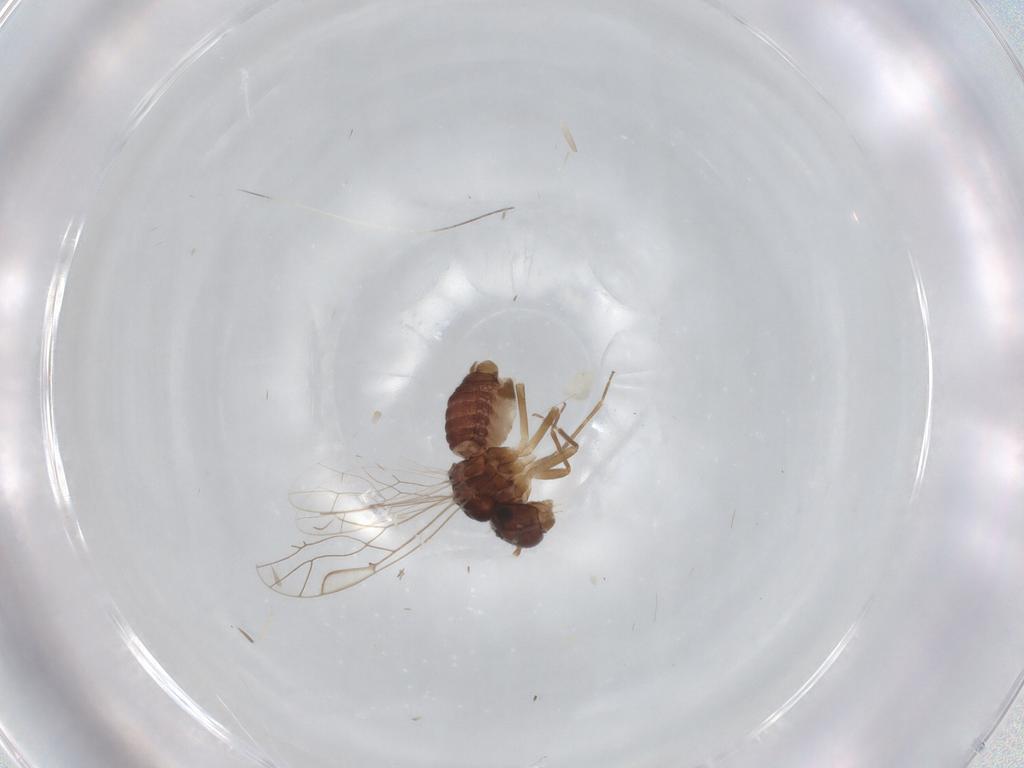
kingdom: Animalia
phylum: Arthropoda
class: Insecta
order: Psocodea
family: Lachesillidae
